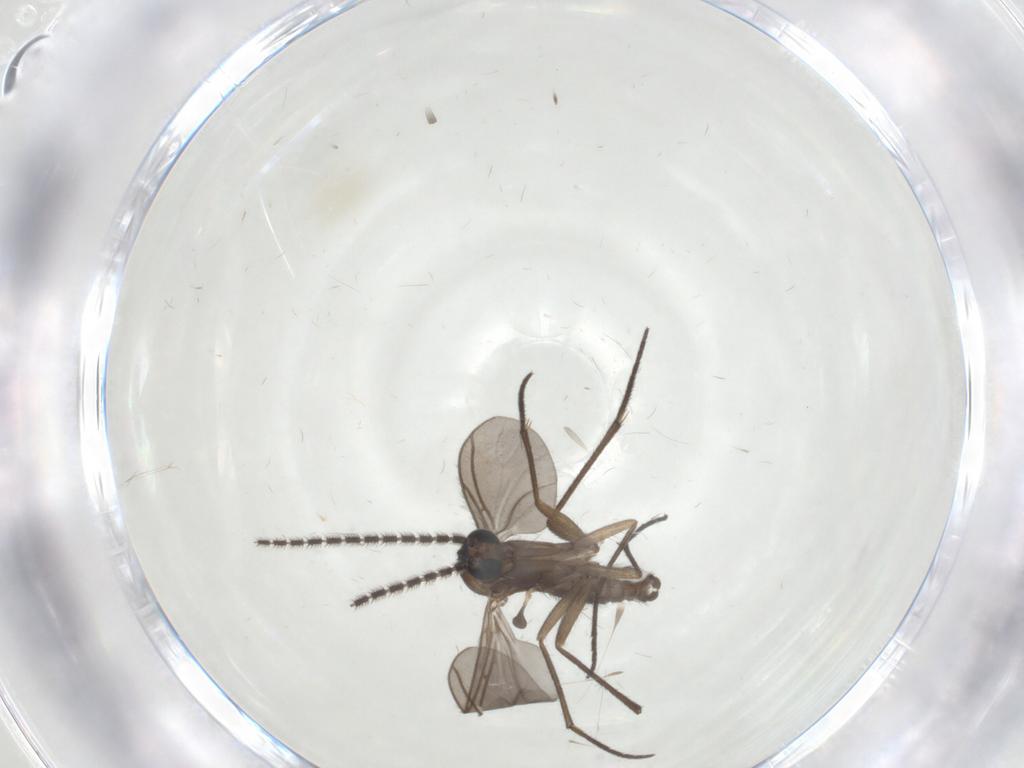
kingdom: Animalia
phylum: Arthropoda
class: Insecta
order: Diptera
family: Sciaridae
